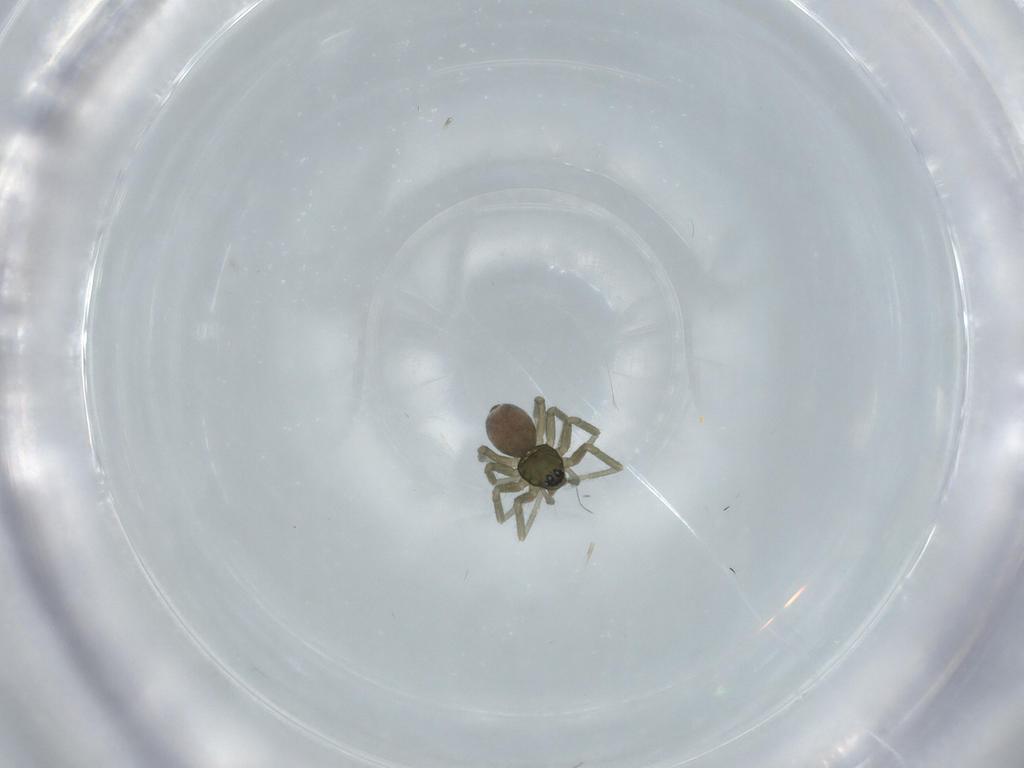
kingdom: Animalia
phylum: Arthropoda
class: Arachnida
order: Araneae
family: Linyphiidae
